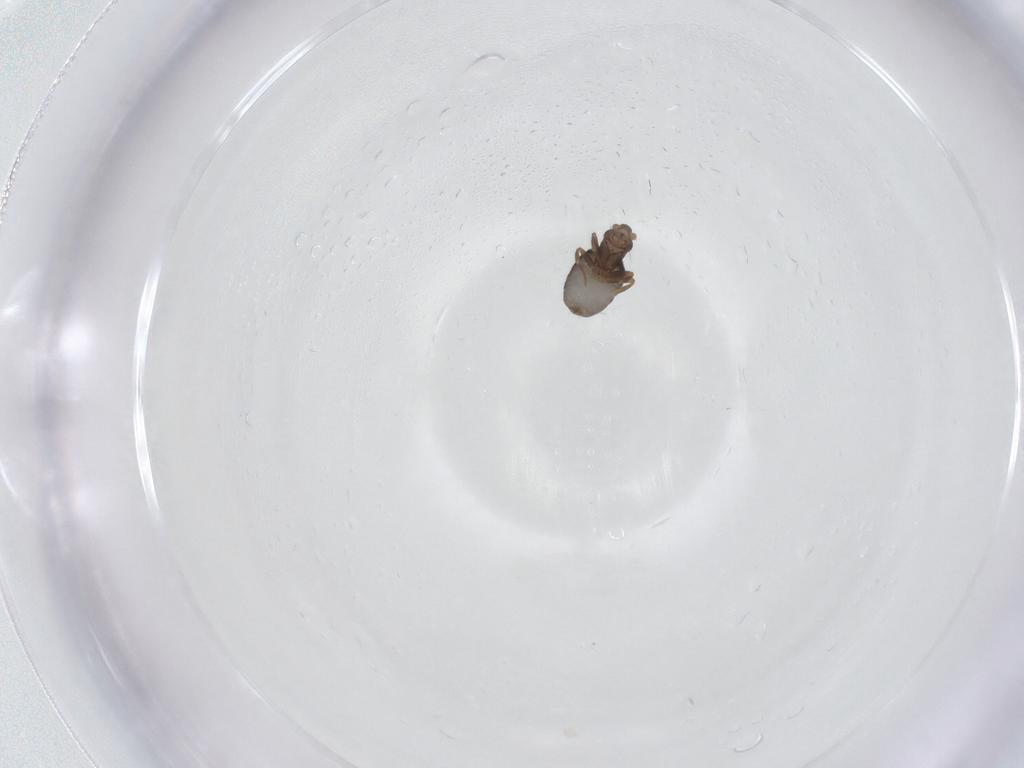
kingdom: Animalia
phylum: Arthropoda
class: Insecta
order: Diptera
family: Phoridae
